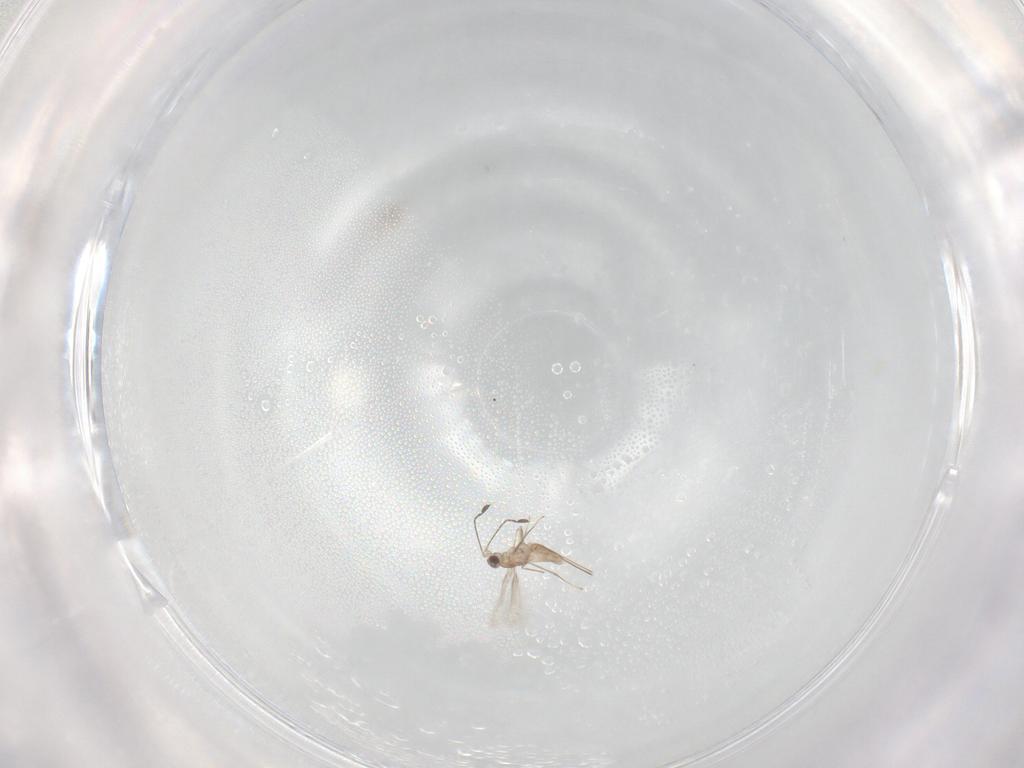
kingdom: Animalia
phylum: Arthropoda
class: Insecta
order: Hymenoptera
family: Mymaridae
